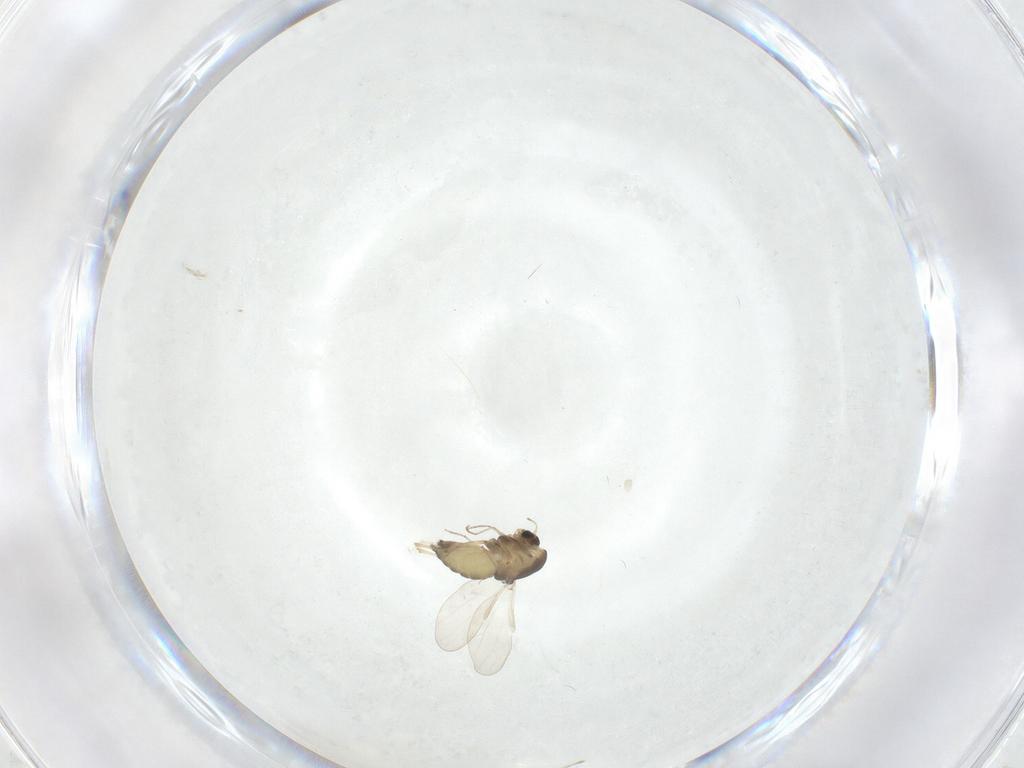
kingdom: Animalia
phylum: Arthropoda
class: Insecta
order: Diptera
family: Chironomidae
